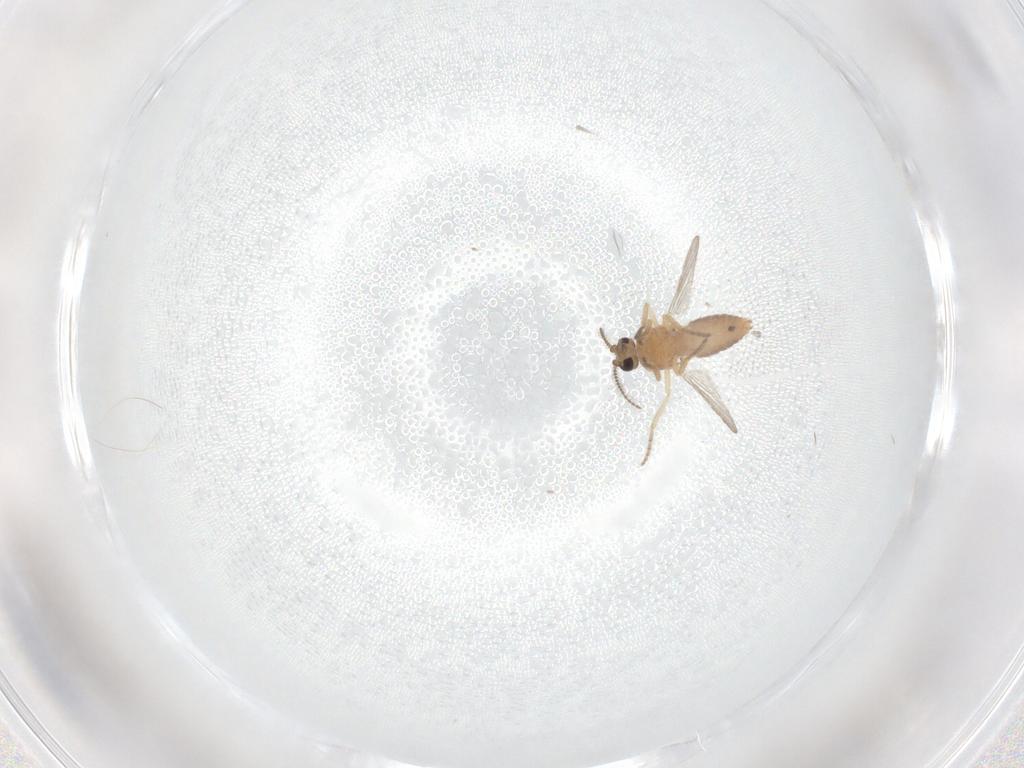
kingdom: Animalia
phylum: Arthropoda
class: Insecta
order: Diptera
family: Ceratopogonidae
